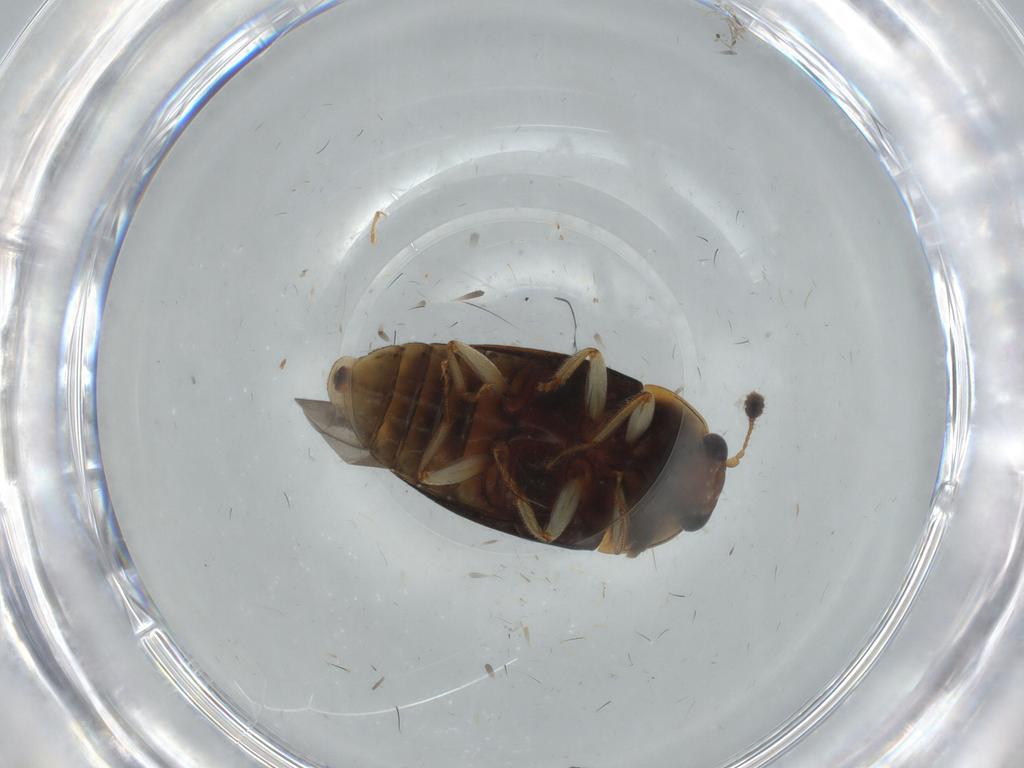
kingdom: Animalia
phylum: Arthropoda
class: Insecta
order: Coleoptera
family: Nitidulidae
